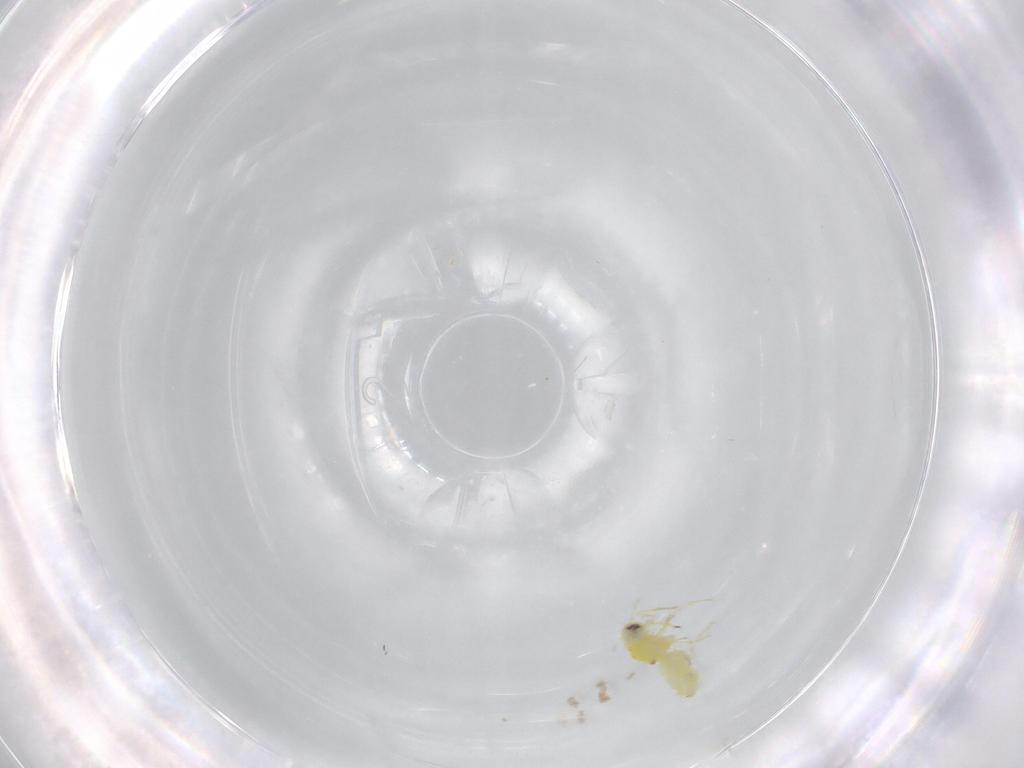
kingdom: Animalia
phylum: Arthropoda
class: Insecta
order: Hemiptera
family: Aleyrodidae
